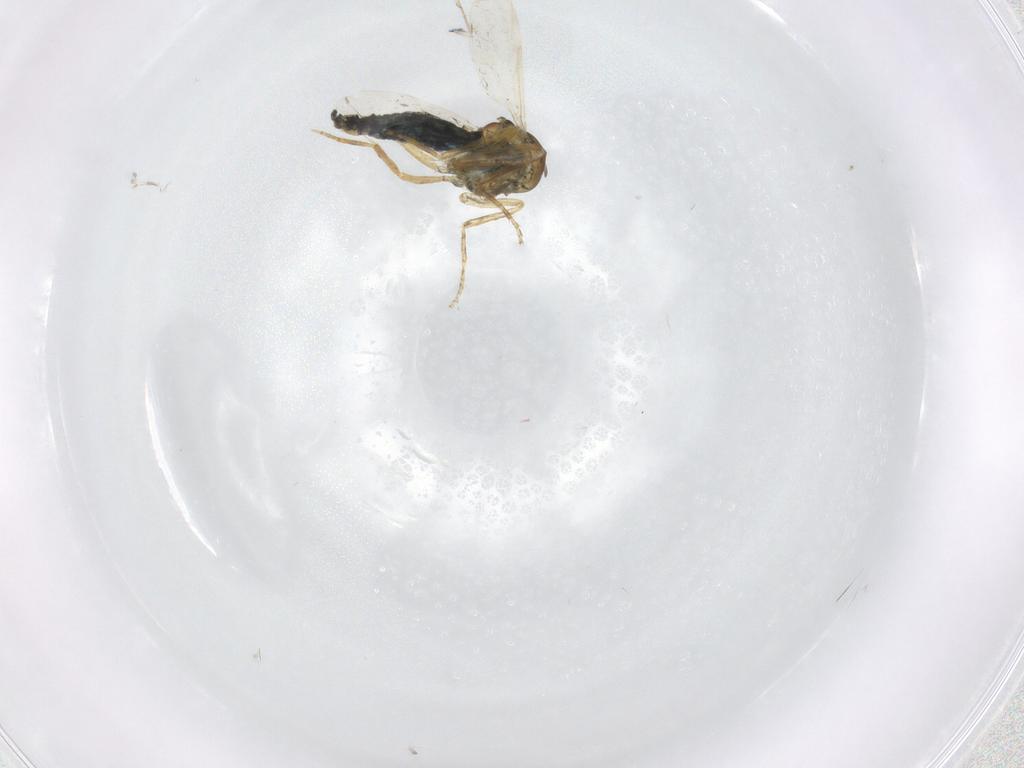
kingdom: Animalia
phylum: Arthropoda
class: Insecta
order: Diptera
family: Ceratopogonidae
